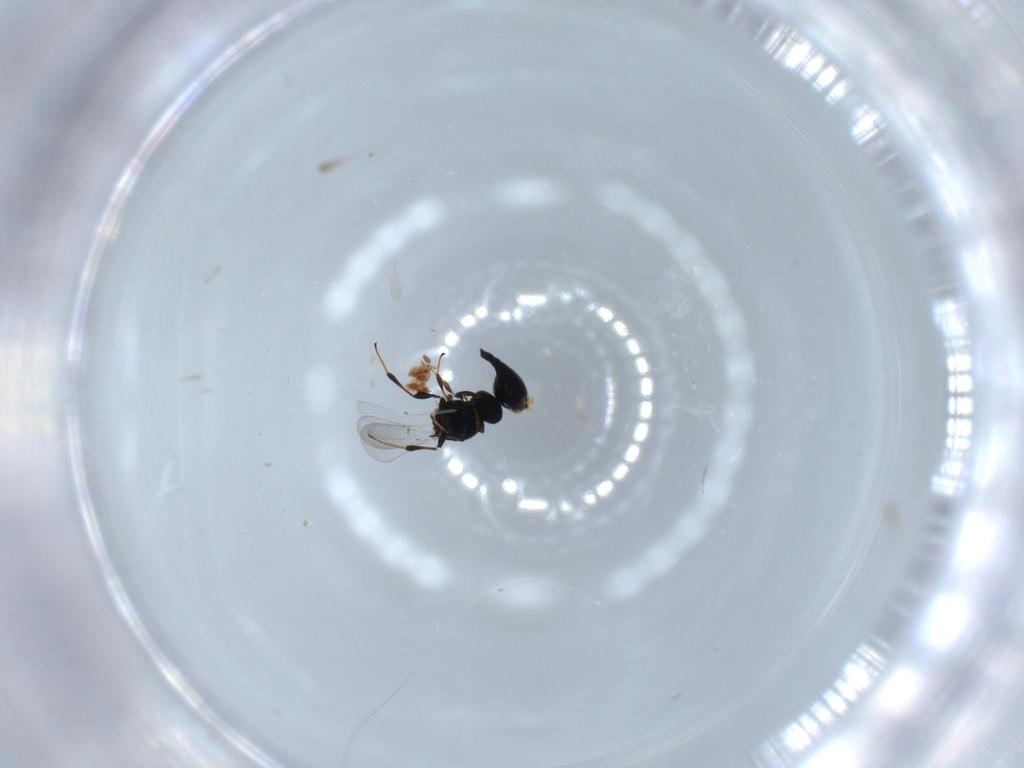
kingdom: Animalia
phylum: Arthropoda
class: Insecta
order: Hymenoptera
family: Platygastridae
